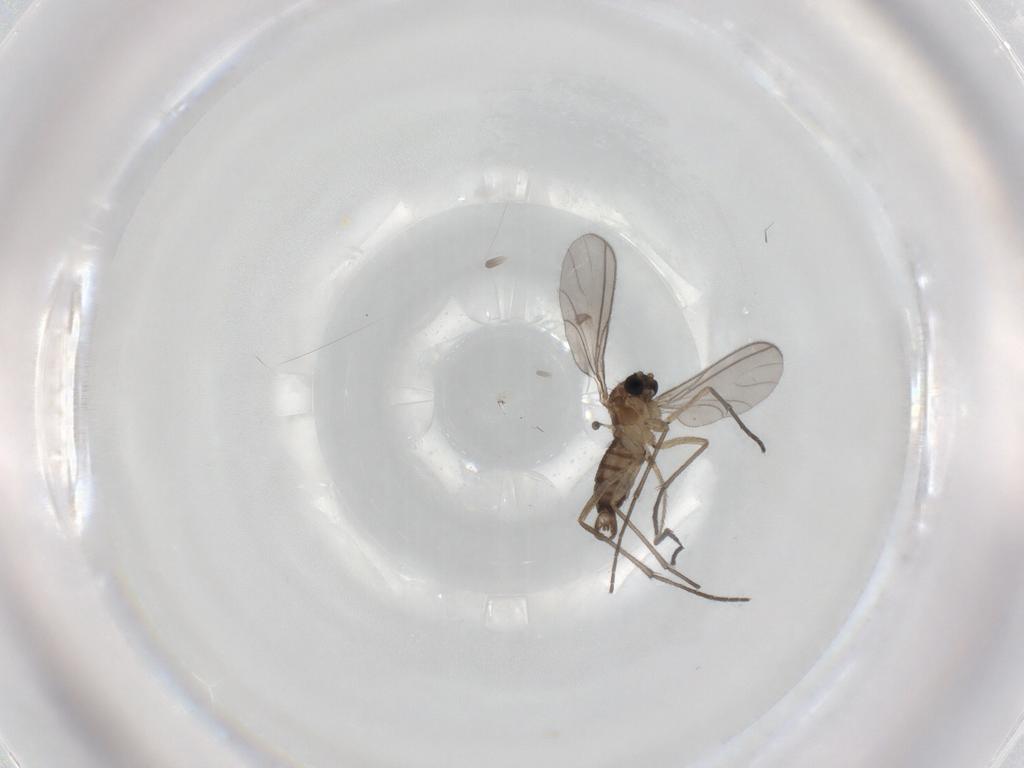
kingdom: Animalia
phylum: Arthropoda
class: Insecta
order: Diptera
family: Sciaridae
